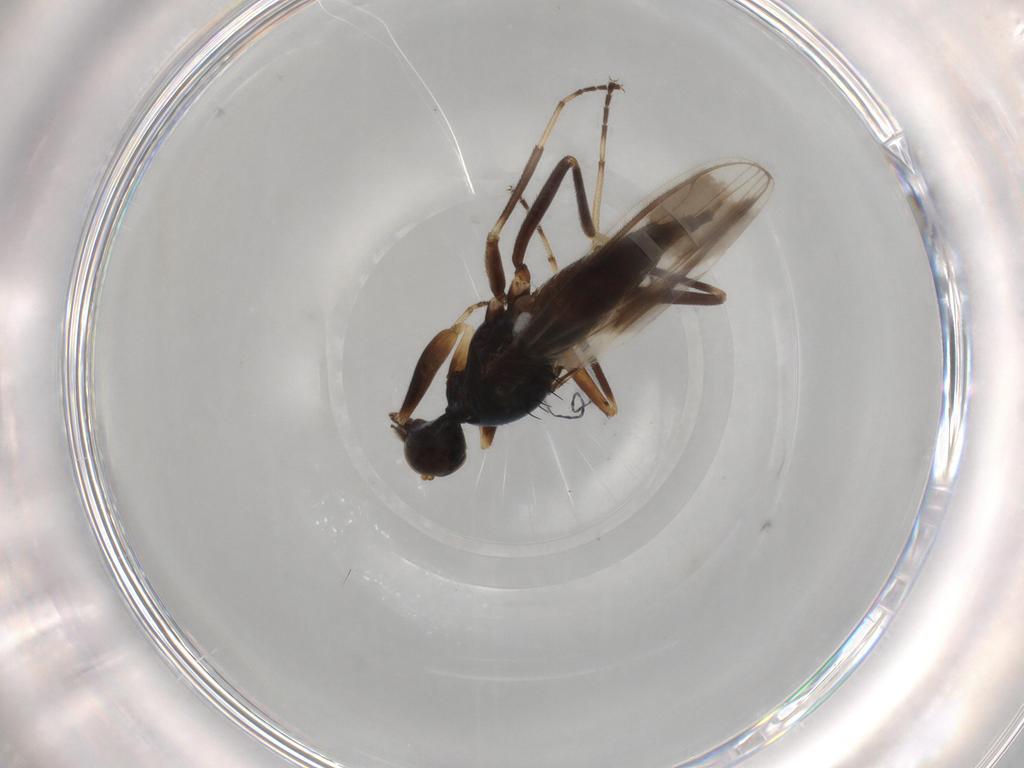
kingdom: Animalia
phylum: Arthropoda
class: Insecta
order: Diptera
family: Hybotidae
